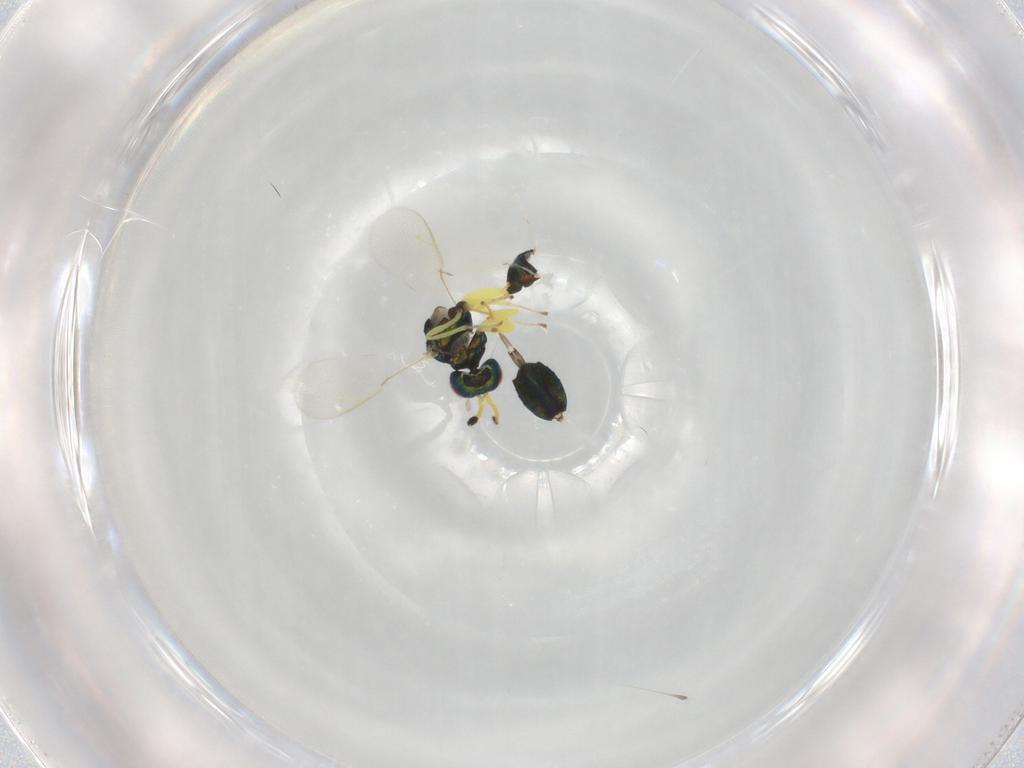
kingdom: Animalia
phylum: Arthropoda
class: Insecta
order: Hymenoptera
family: Pteromalidae
